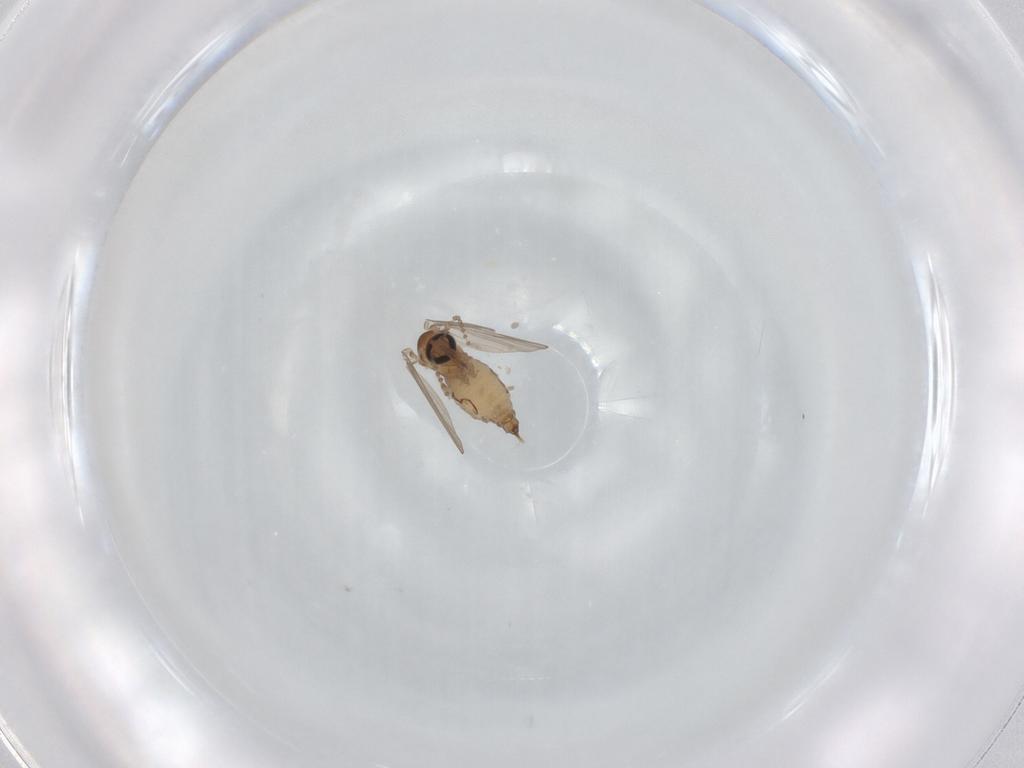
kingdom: Animalia
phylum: Arthropoda
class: Insecta
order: Diptera
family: Psychodidae
